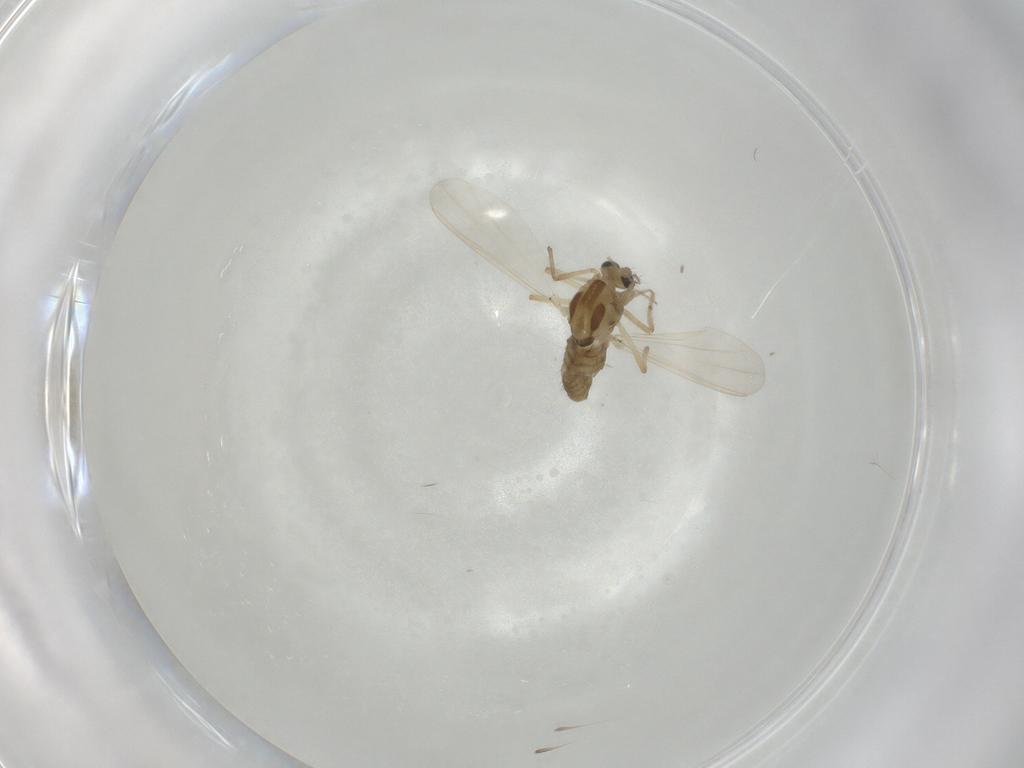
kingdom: Animalia
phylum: Arthropoda
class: Insecta
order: Diptera
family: Chironomidae
